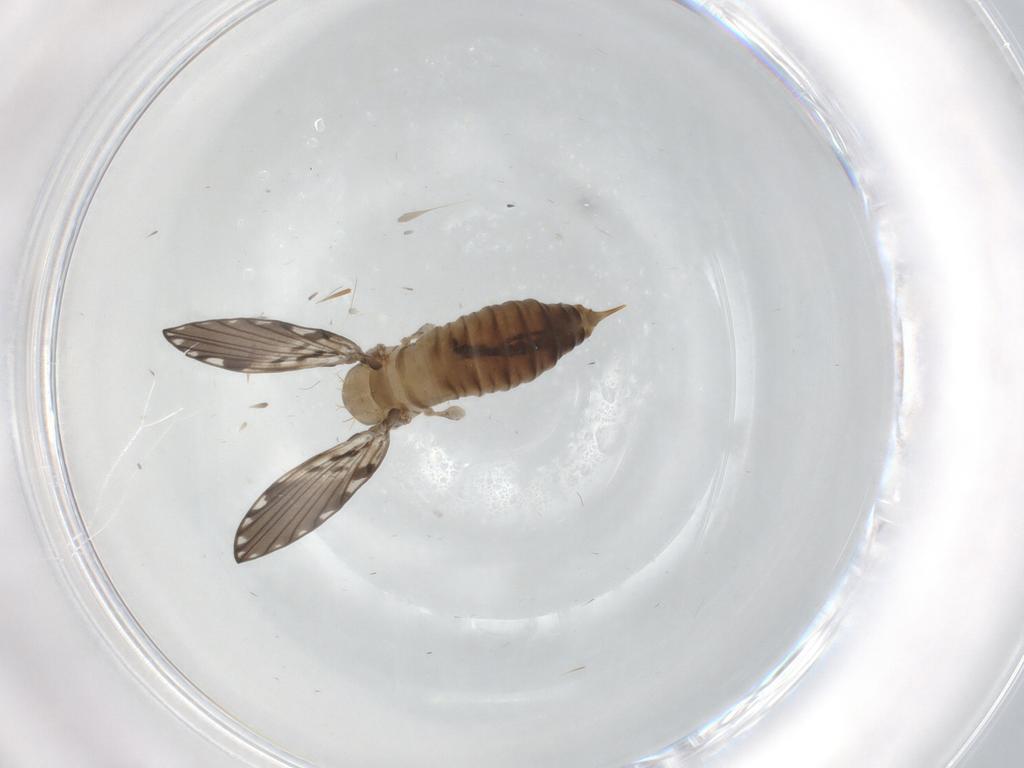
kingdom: Animalia
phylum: Arthropoda
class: Insecta
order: Diptera
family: Psychodidae
